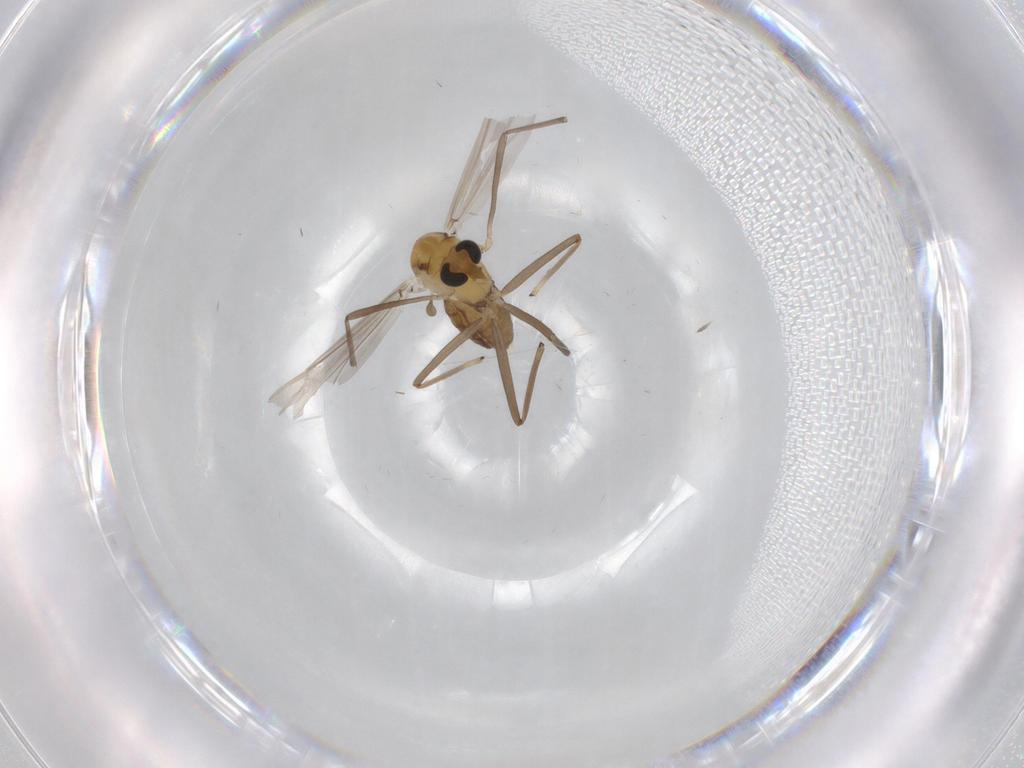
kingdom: Animalia
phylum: Arthropoda
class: Insecta
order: Diptera
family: Chironomidae
